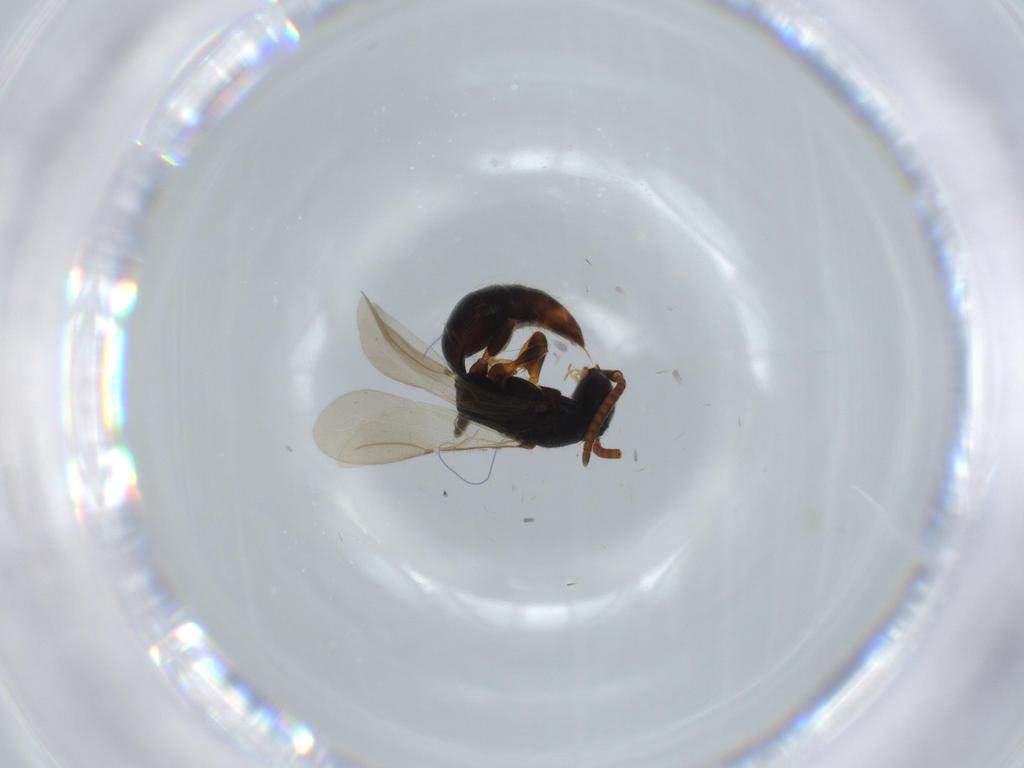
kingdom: Animalia
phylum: Arthropoda
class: Insecta
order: Hymenoptera
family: Bethylidae
